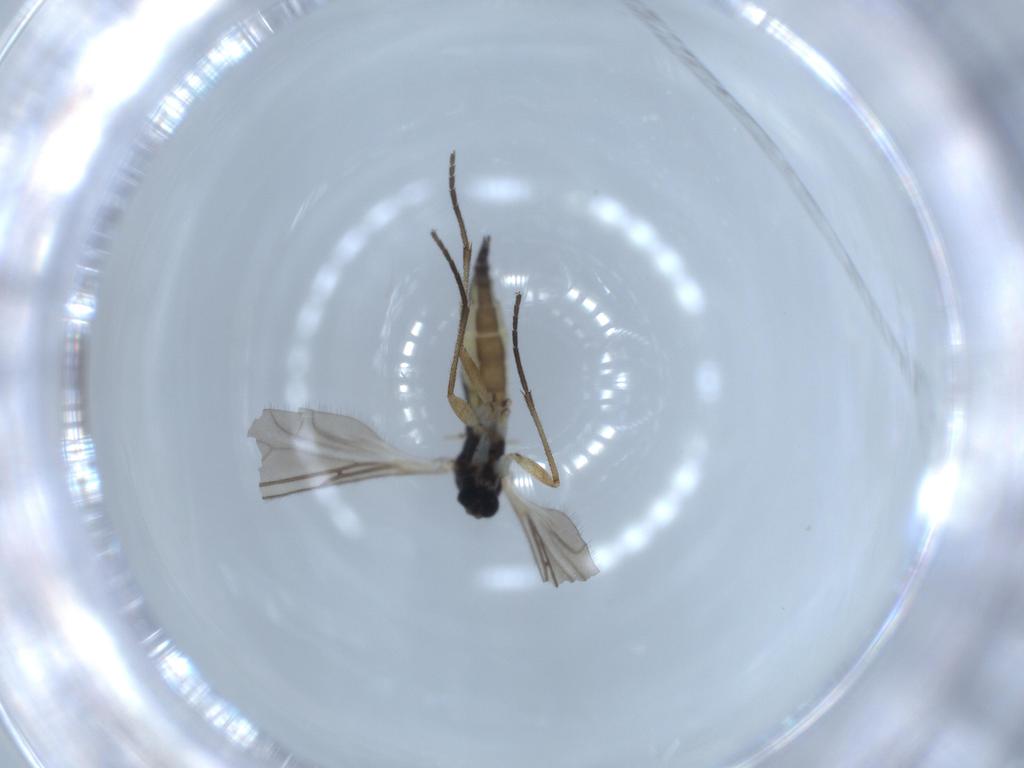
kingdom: Animalia
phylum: Arthropoda
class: Insecta
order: Diptera
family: Sciaridae
